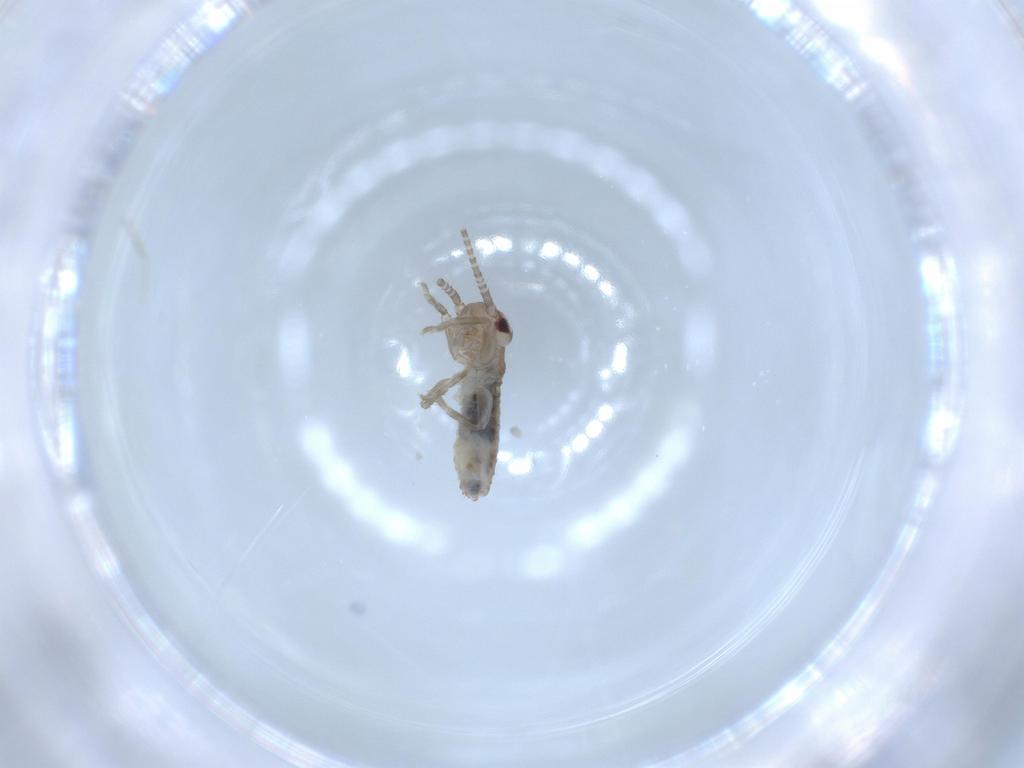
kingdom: Animalia
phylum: Arthropoda
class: Insecta
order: Orthoptera
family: Gryllidae
